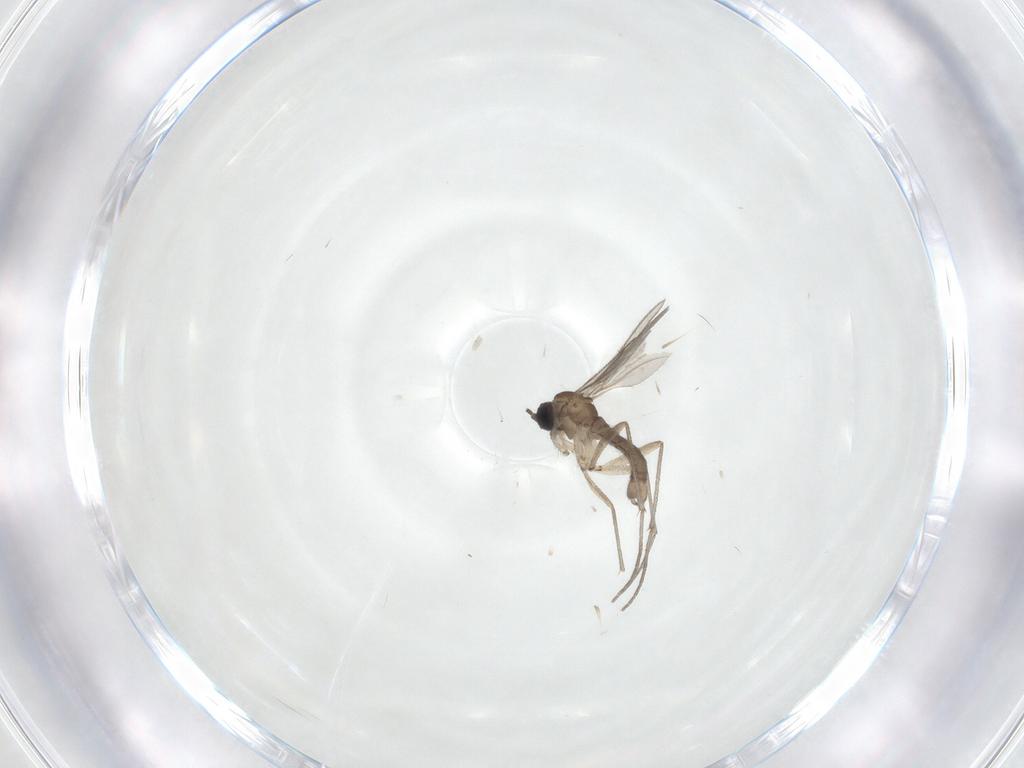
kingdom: Animalia
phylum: Arthropoda
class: Insecta
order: Diptera
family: Sciaridae
